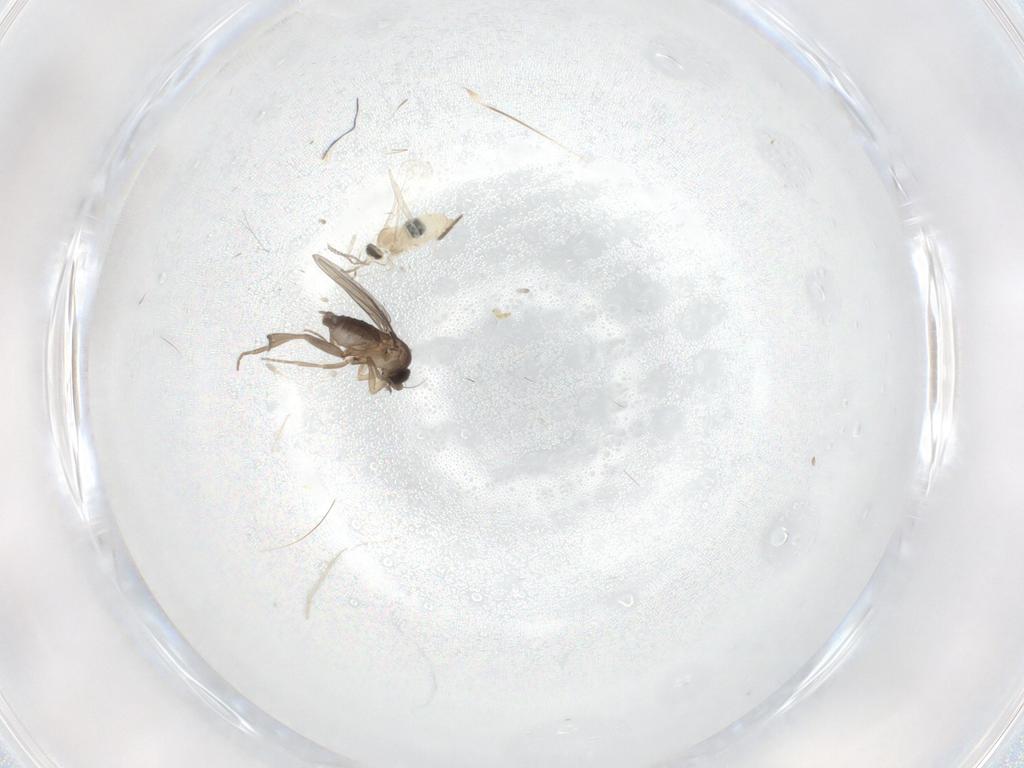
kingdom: Animalia
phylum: Arthropoda
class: Insecta
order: Diptera
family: Cecidomyiidae
